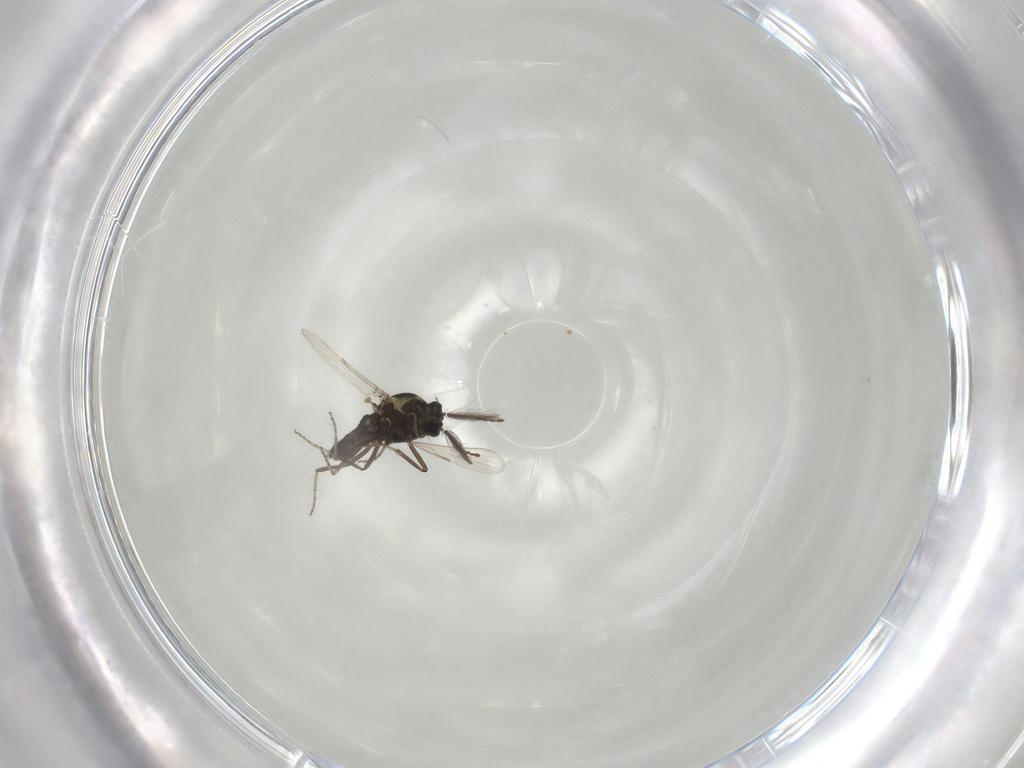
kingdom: Animalia
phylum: Arthropoda
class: Insecta
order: Diptera
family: Ceratopogonidae
